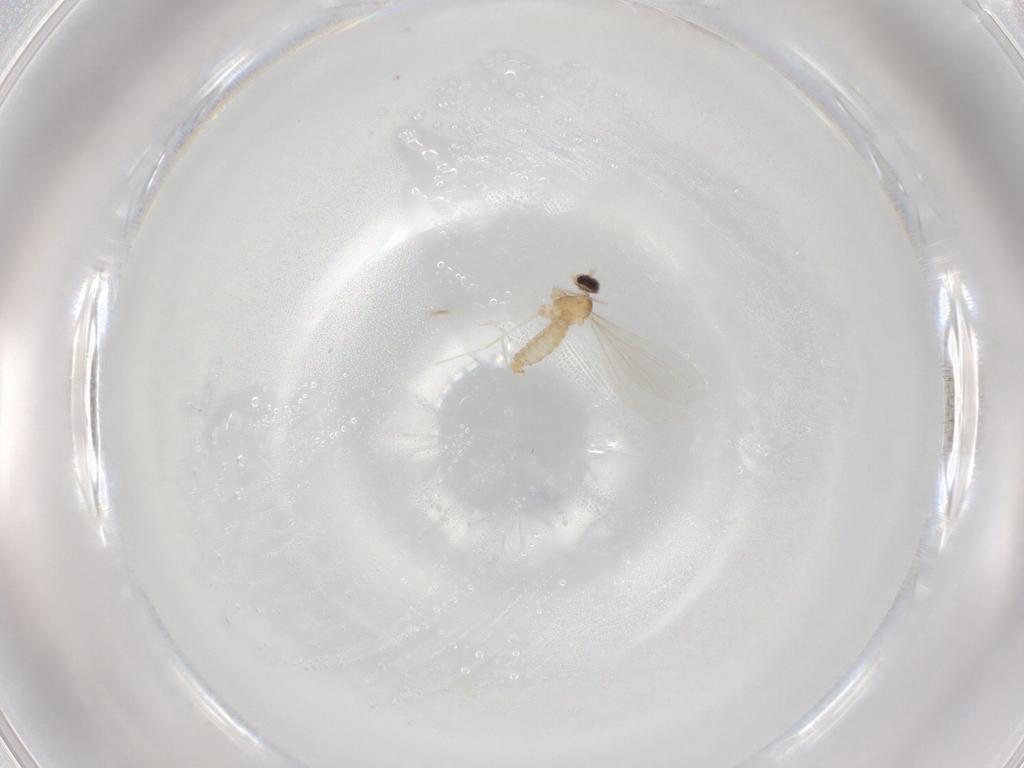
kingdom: Animalia
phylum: Arthropoda
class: Insecta
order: Diptera
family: Cecidomyiidae
